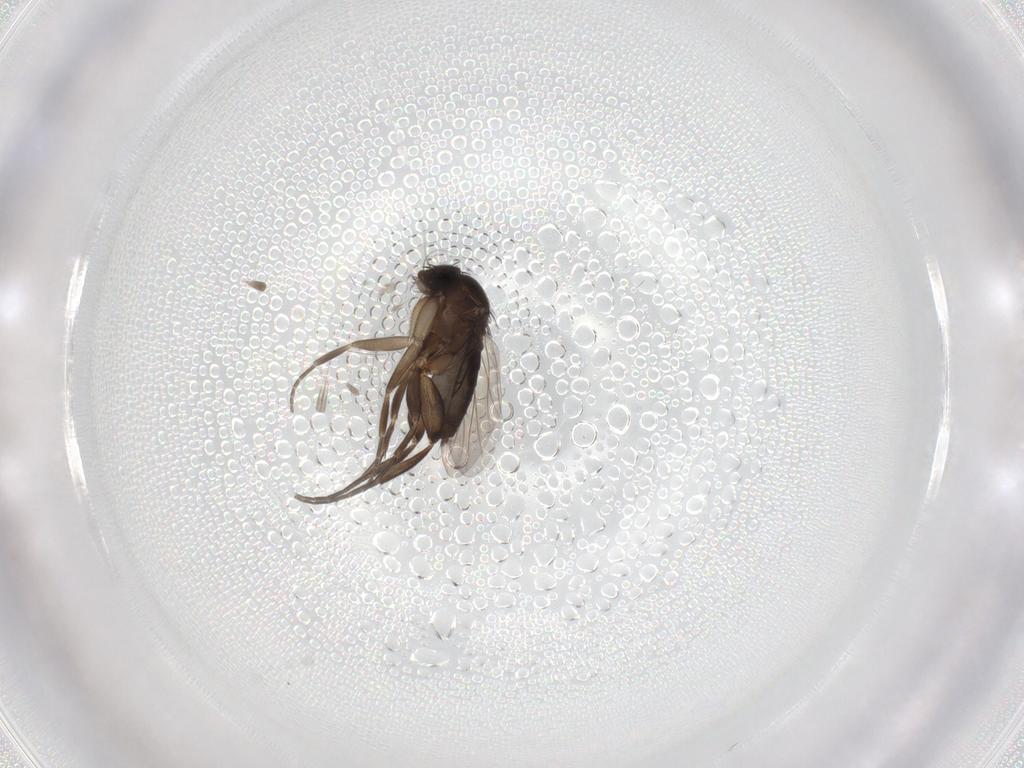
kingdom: Animalia
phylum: Arthropoda
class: Insecta
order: Diptera
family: Phoridae
